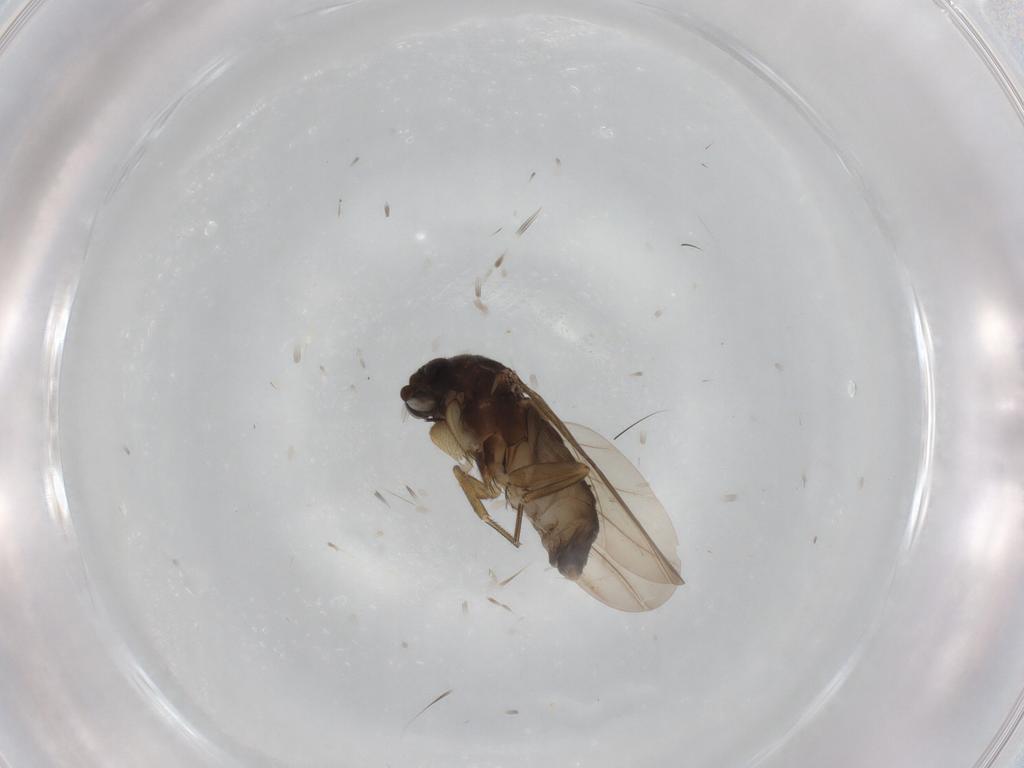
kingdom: Animalia
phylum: Arthropoda
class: Insecta
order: Diptera
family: Phoridae
